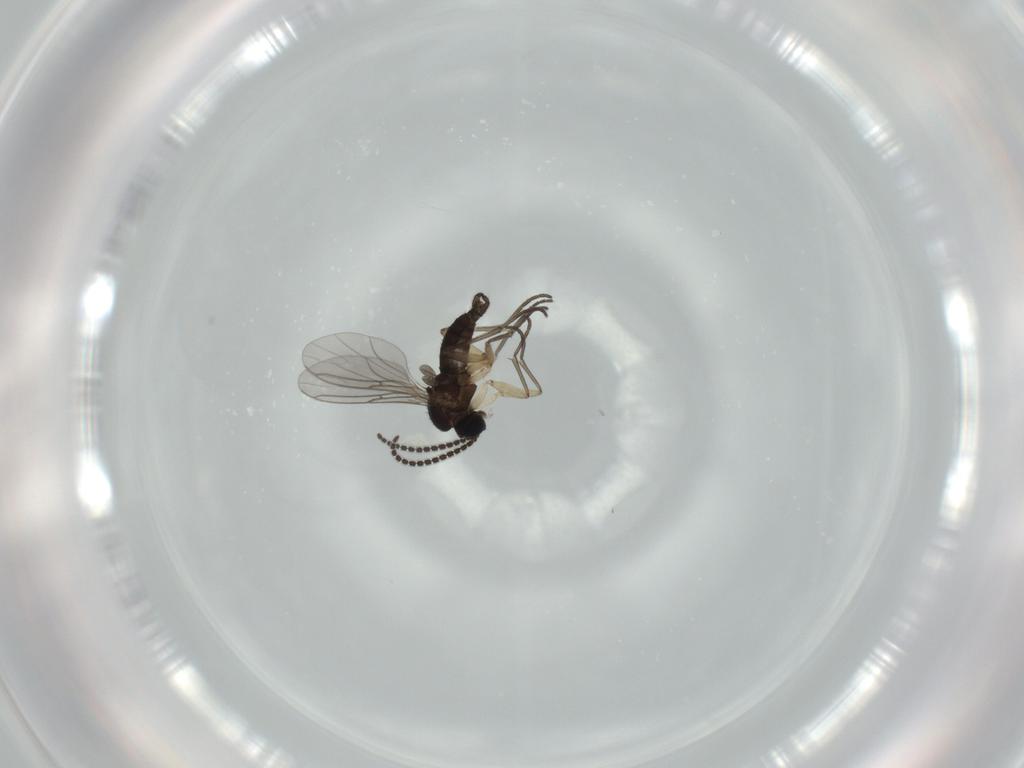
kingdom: Animalia
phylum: Arthropoda
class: Insecta
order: Diptera
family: Sciaridae
